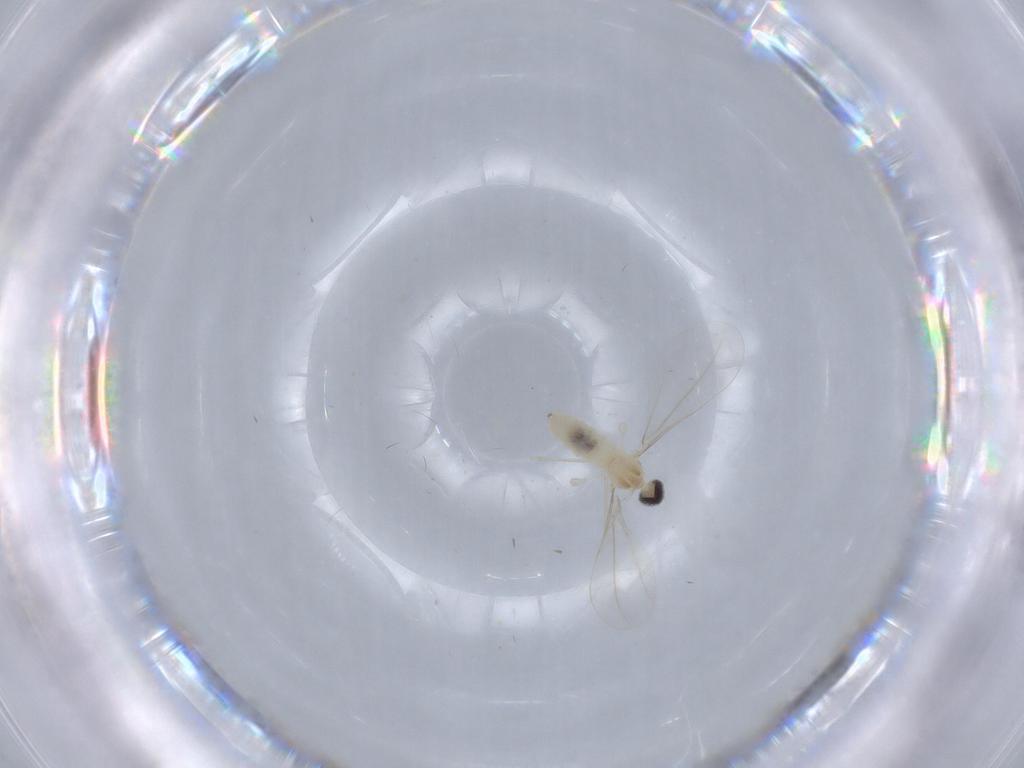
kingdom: Animalia
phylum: Arthropoda
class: Insecta
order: Diptera
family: Cecidomyiidae
